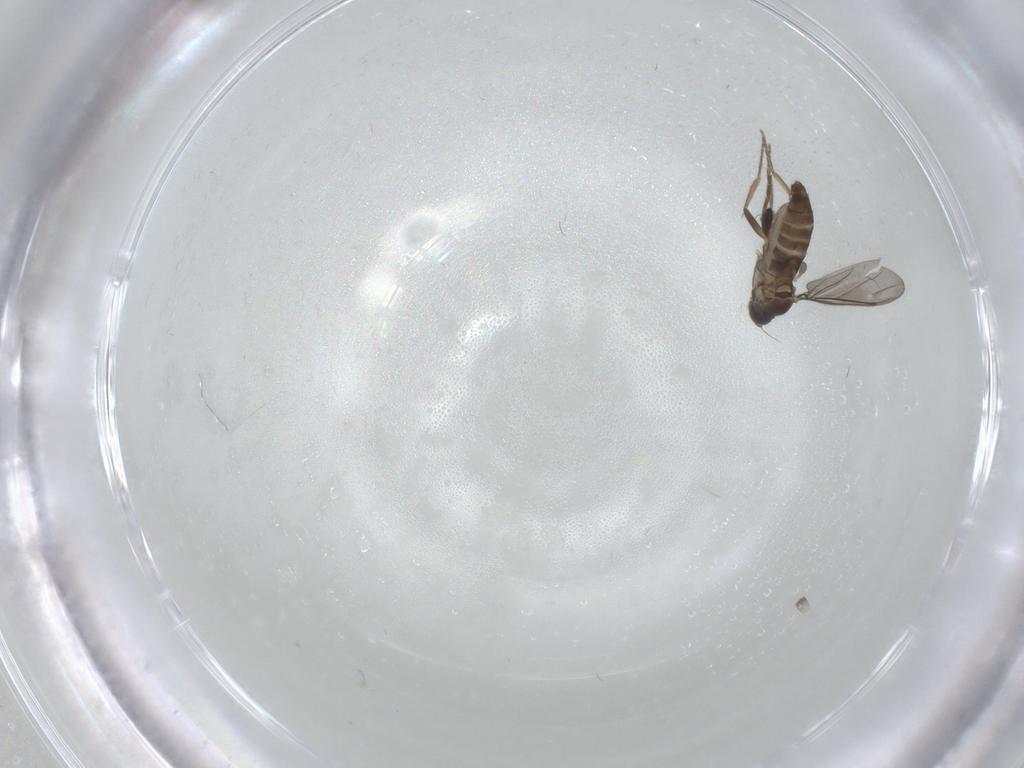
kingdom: Animalia
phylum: Arthropoda
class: Insecta
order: Diptera
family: Phoridae
